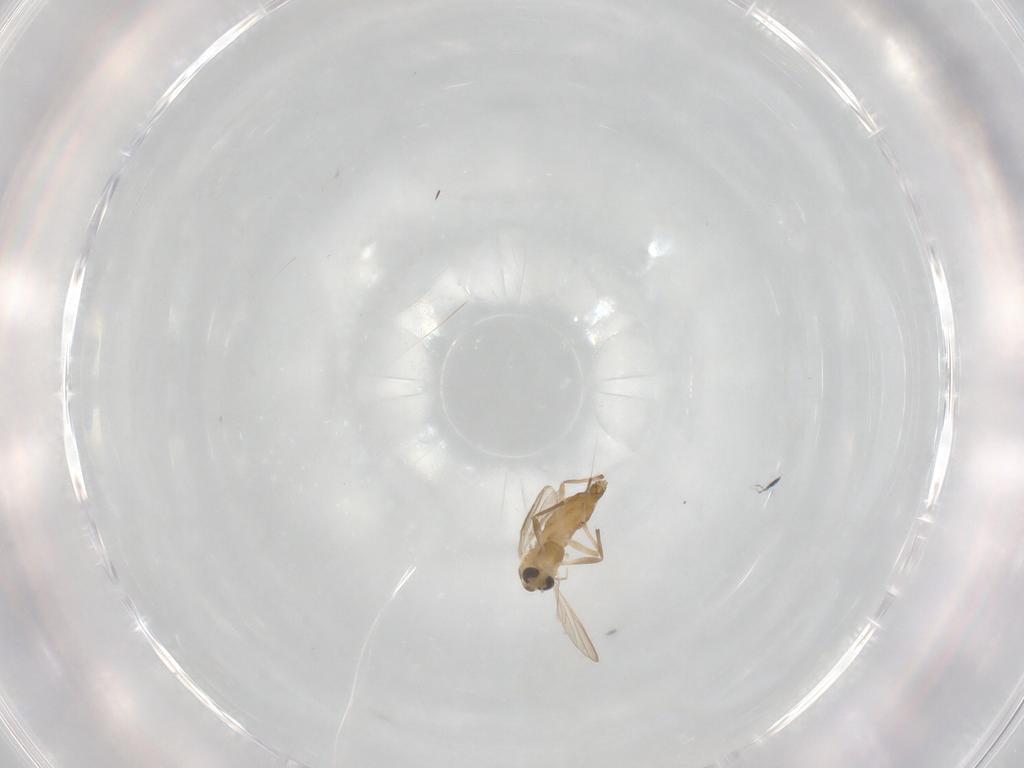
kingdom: Animalia
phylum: Arthropoda
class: Insecta
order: Diptera
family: Chironomidae
